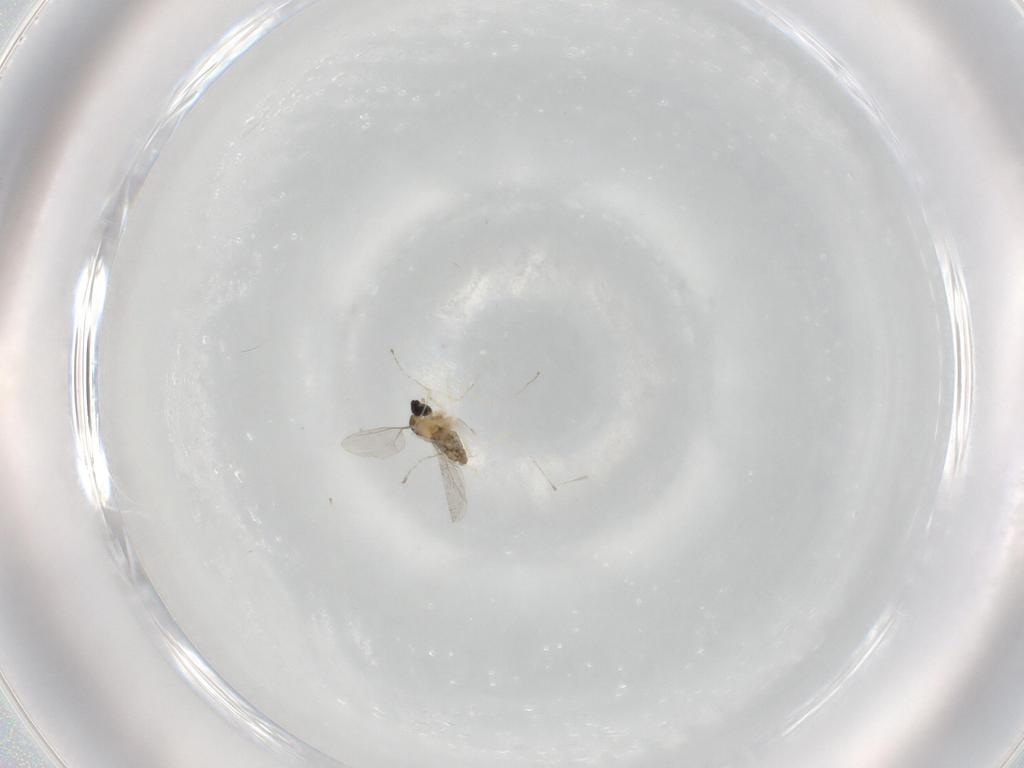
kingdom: Animalia
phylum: Arthropoda
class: Insecta
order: Diptera
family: Cecidomyiidae
